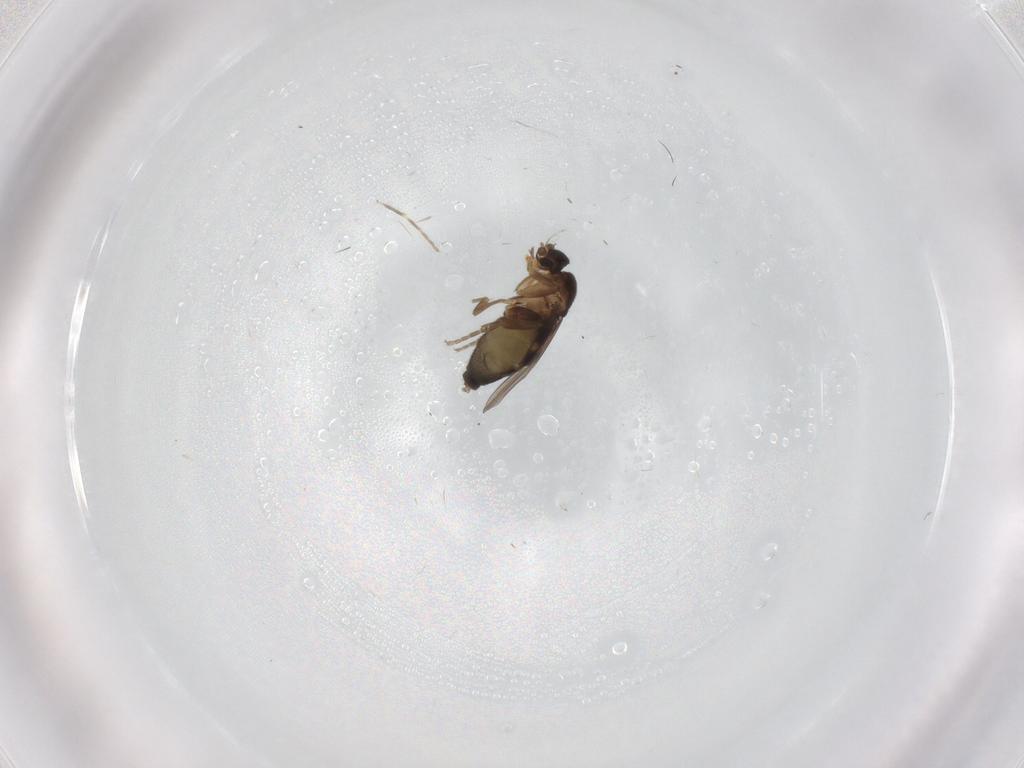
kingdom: Animalia
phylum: Arthropoda
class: Insecta
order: Diptera
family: Phoridae
